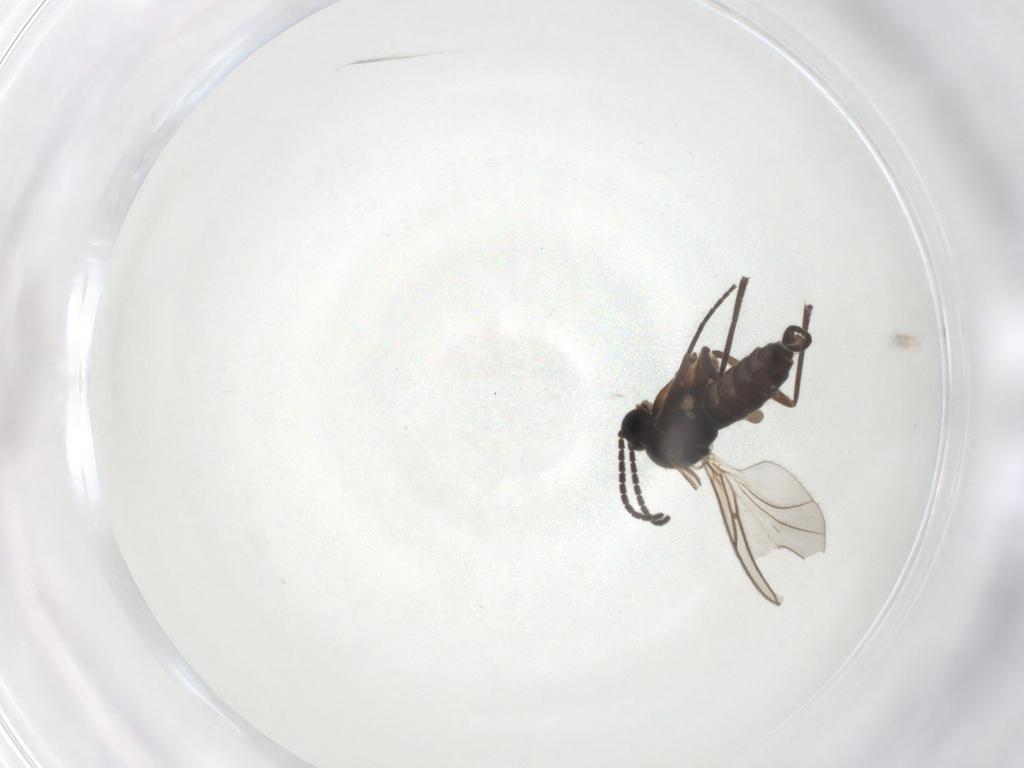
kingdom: Animalia
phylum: Arthropoda
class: Insecta
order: Diptera
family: Sciaridae
